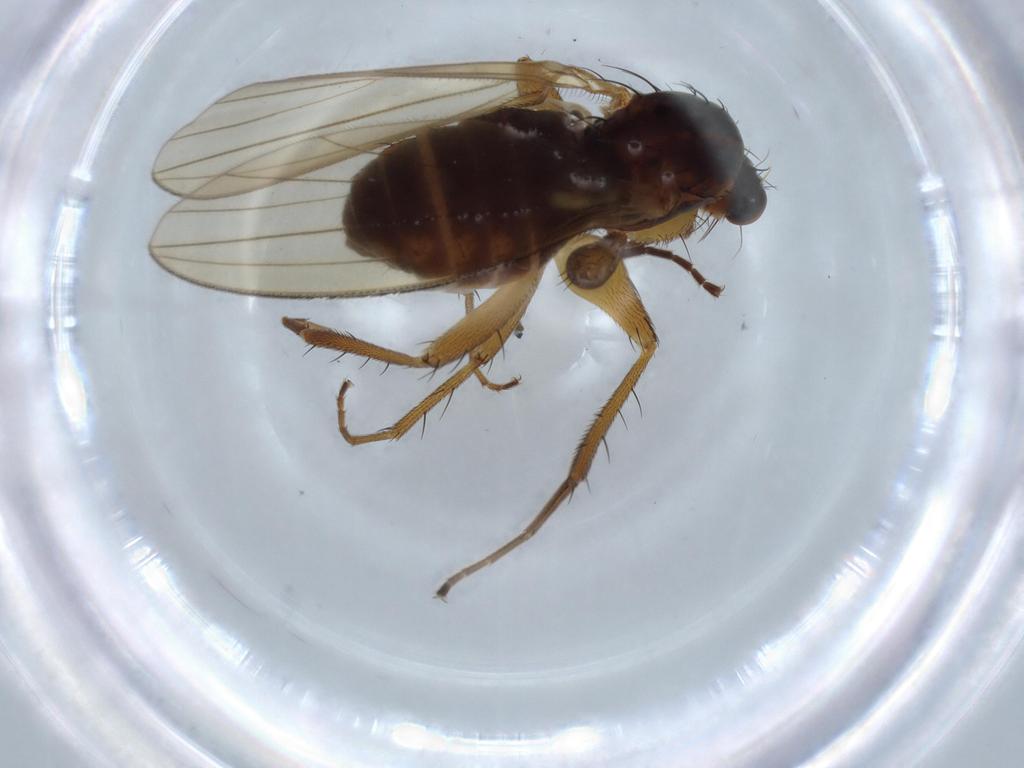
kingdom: Animalia
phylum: Arthropoda
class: Insecta
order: Diptera
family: Lonchopteridae
